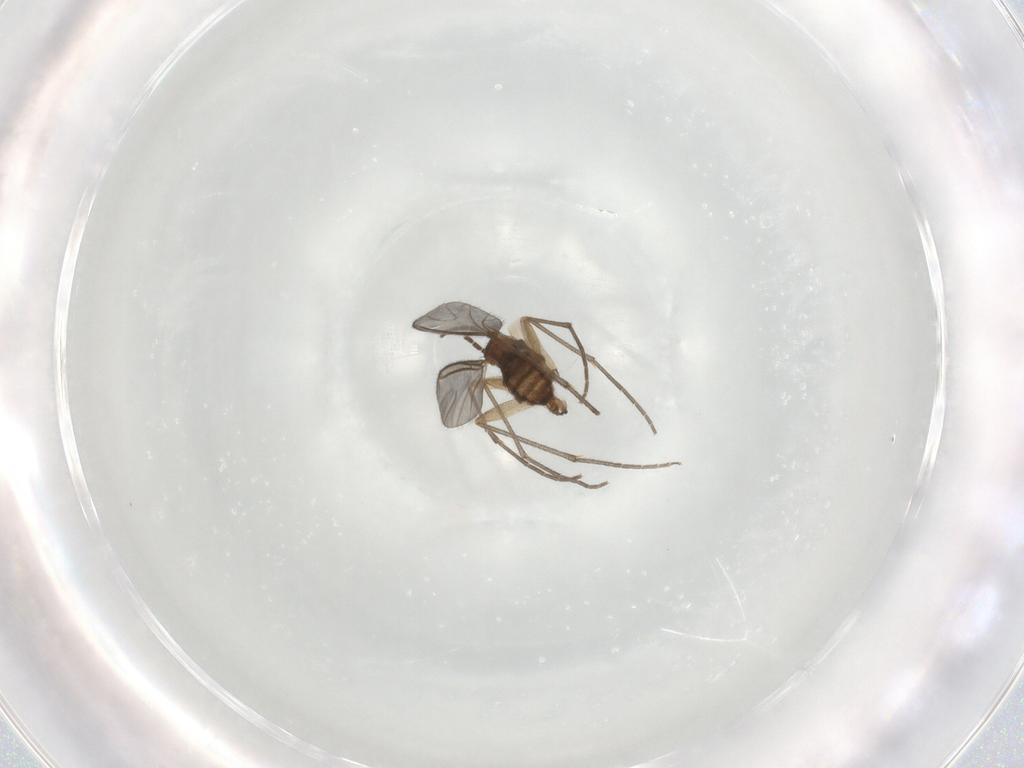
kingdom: Animalia
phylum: Arthropoda
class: Insecta
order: Diptera
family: Sciaridae
